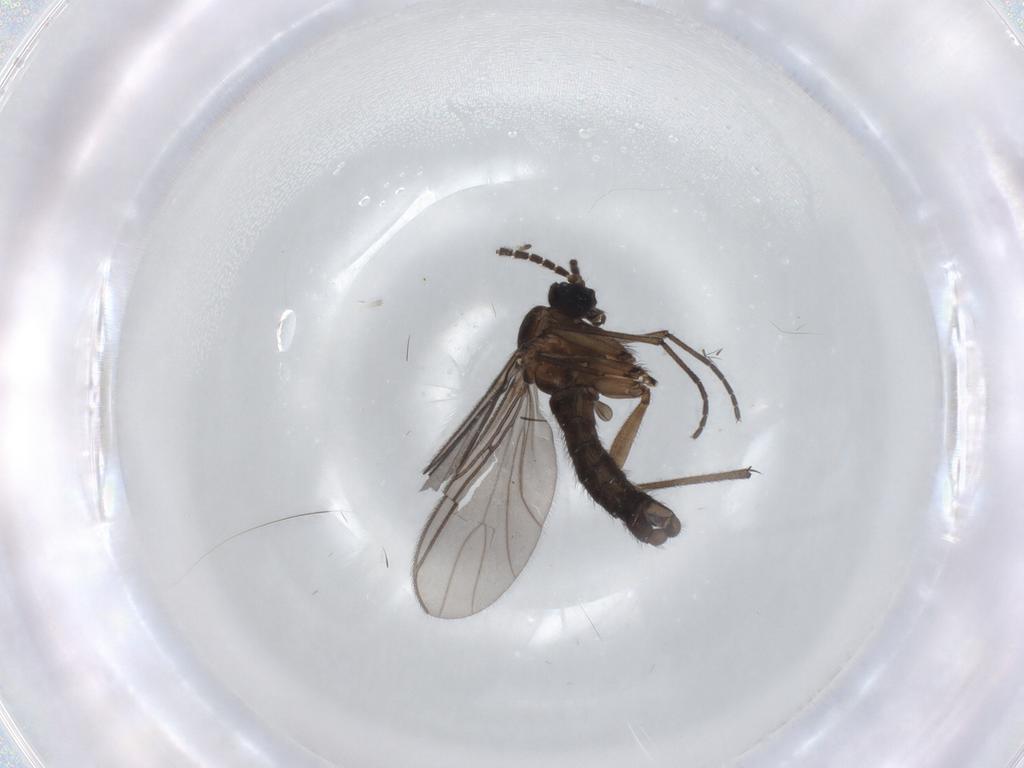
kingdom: Animalia
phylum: Arthropoda
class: Insecta
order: Diptera
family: Sciaridae
